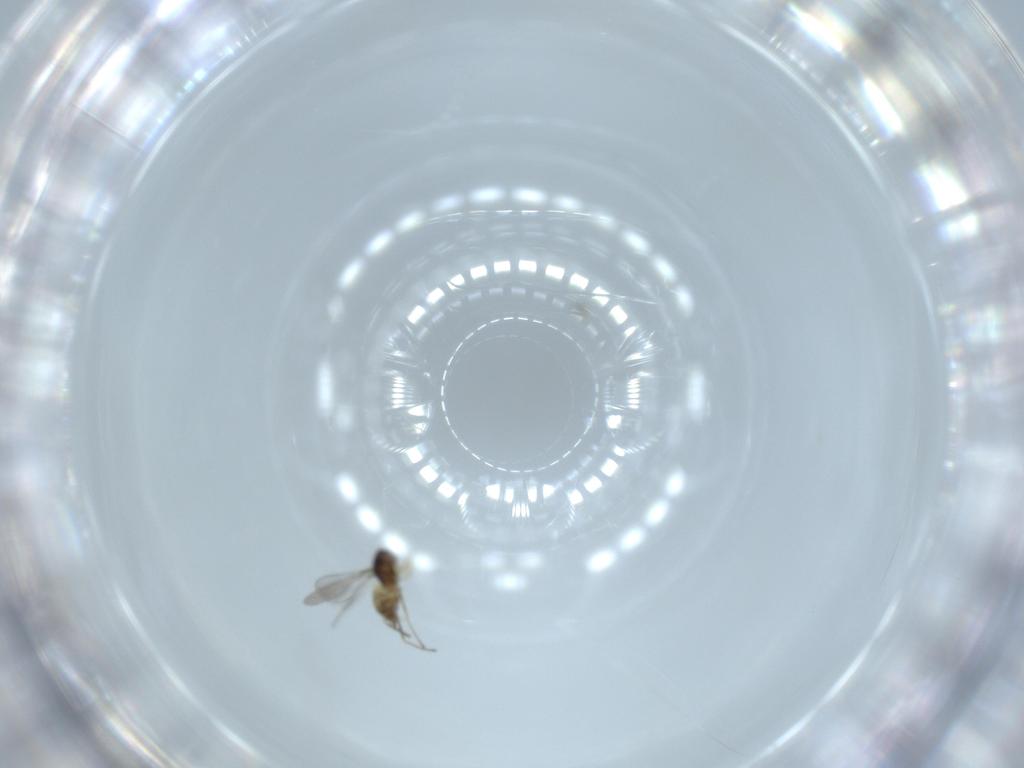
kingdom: Animalia
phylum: Arthropoda
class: Insecta
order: Hymenoptera
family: Mymaridae
